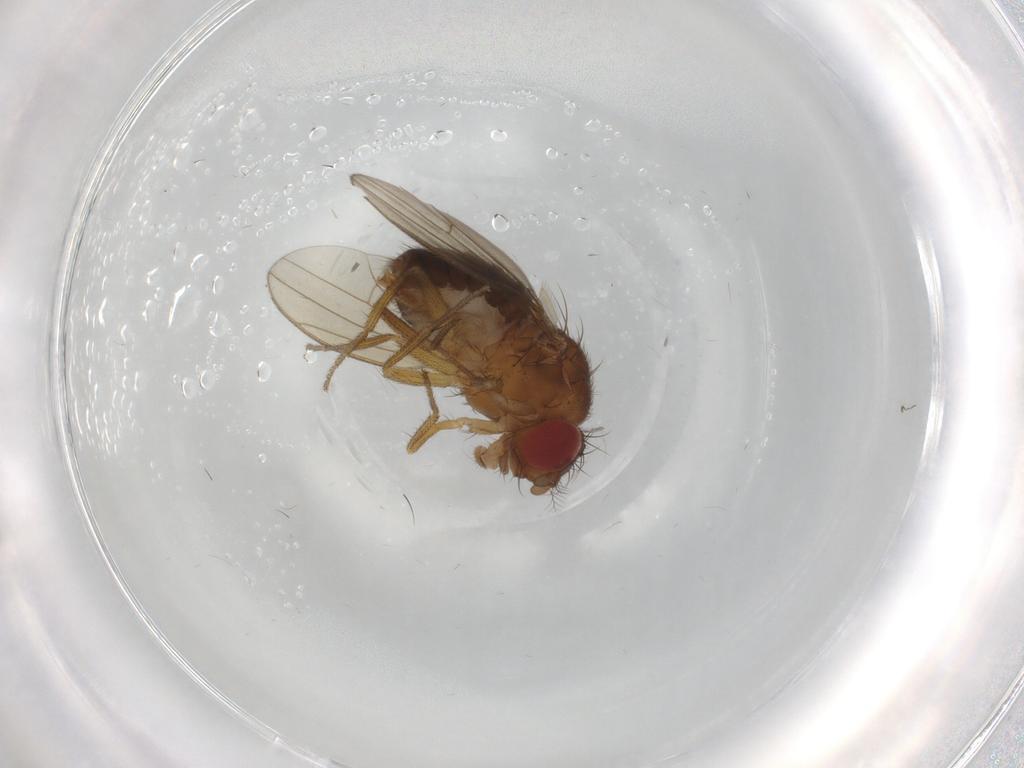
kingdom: Animalia
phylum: Arthropoda
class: Insecta
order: Diptera
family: Drosophilidae
